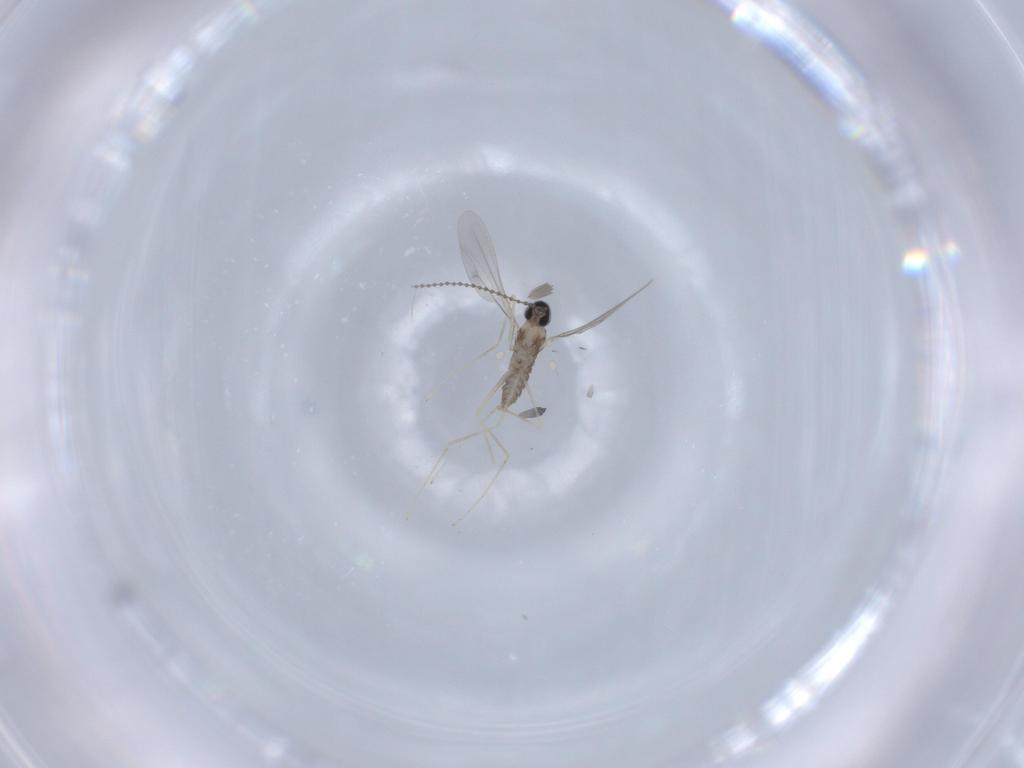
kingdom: Animalia
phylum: Arthropoda
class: Insecta
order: Diptera
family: Cecidomyiidae
